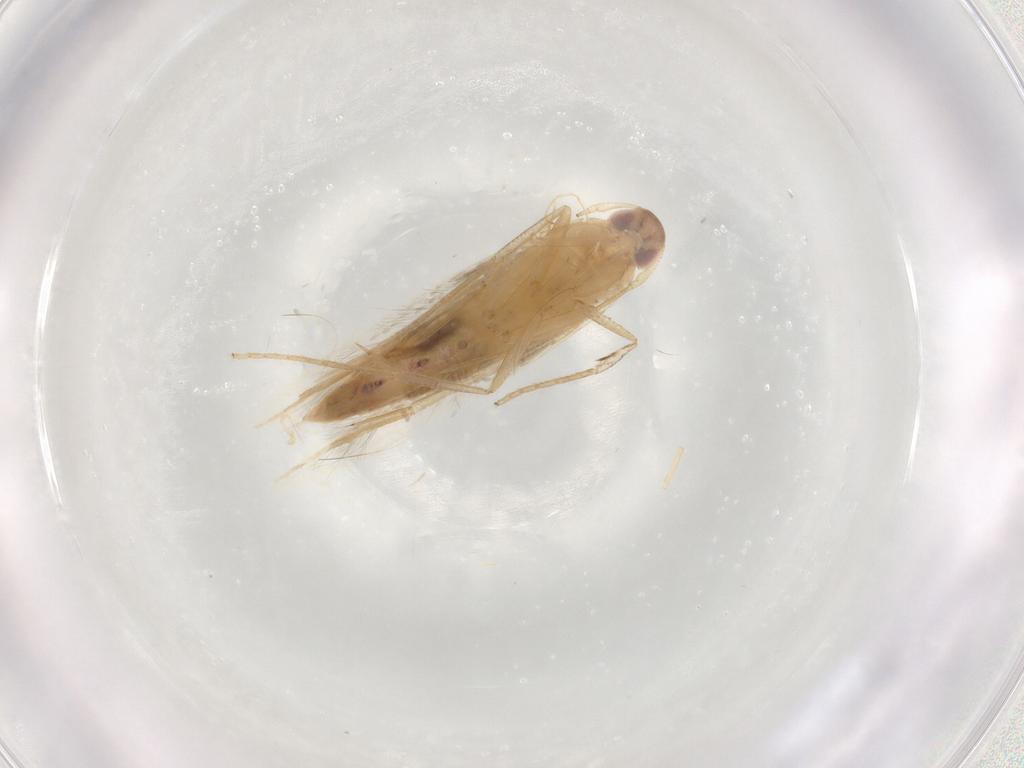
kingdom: Animalia
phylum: Arthropoda
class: Insecta
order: Lepidoptera
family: Cosmopterigidae
